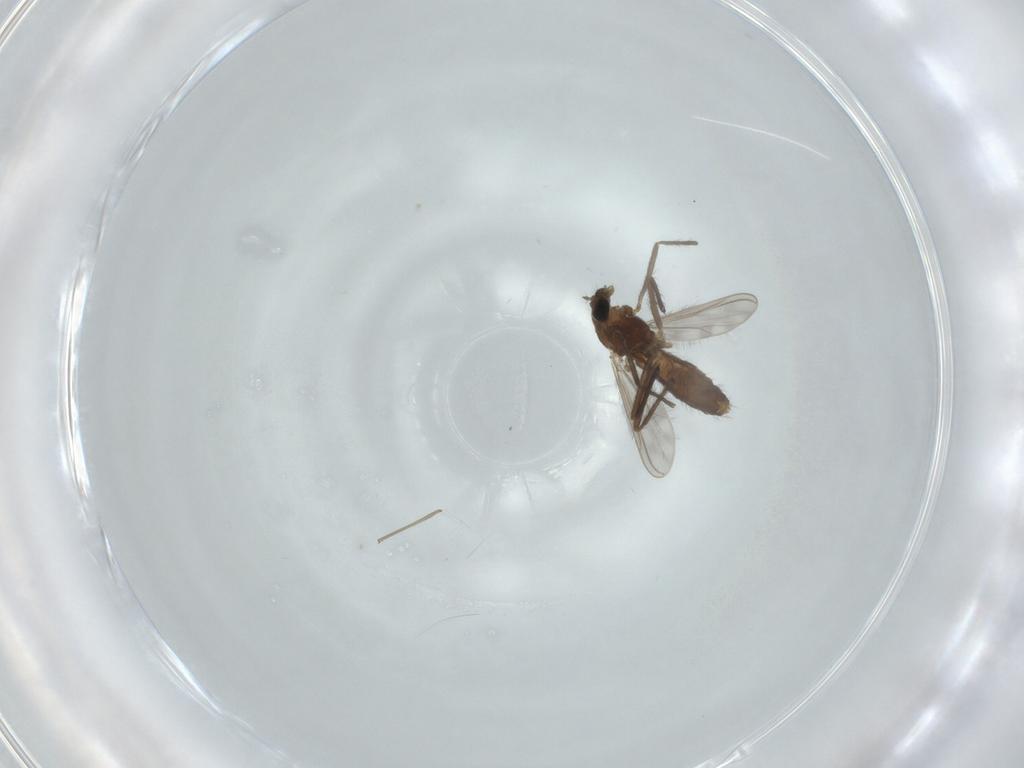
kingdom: Animalia
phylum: Arthropoda
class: Insecta
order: Diptera
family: Chironomidae
